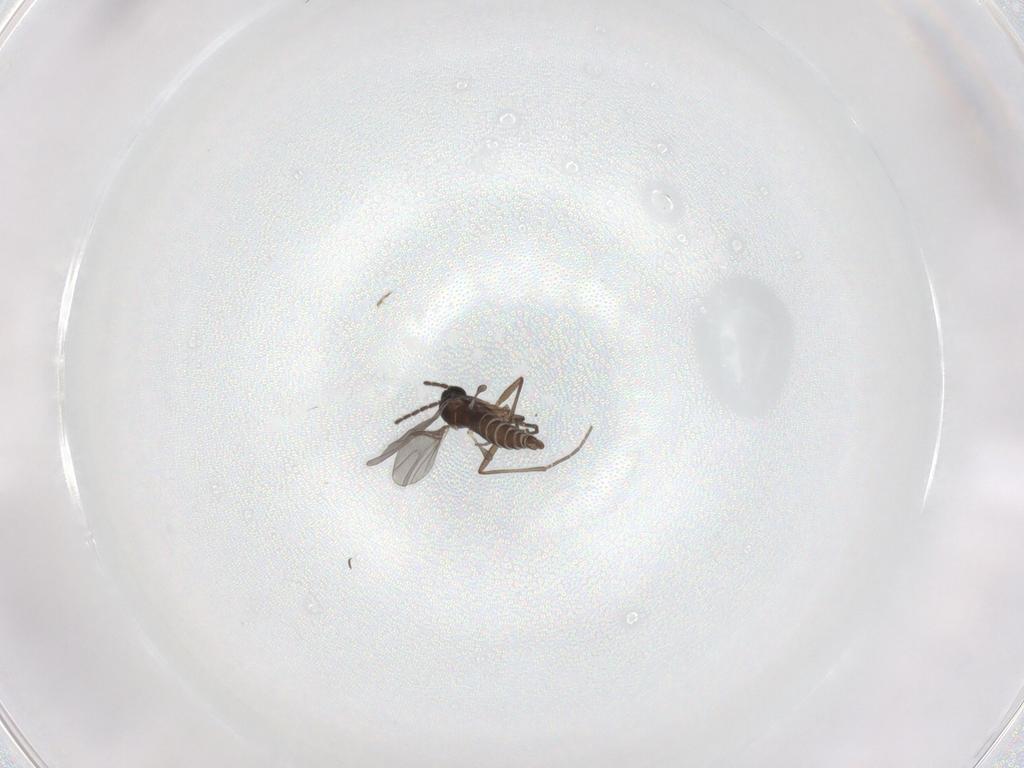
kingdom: Animalia
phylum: Arthropoda
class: Insecta
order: Diptera
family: Sciaridae
